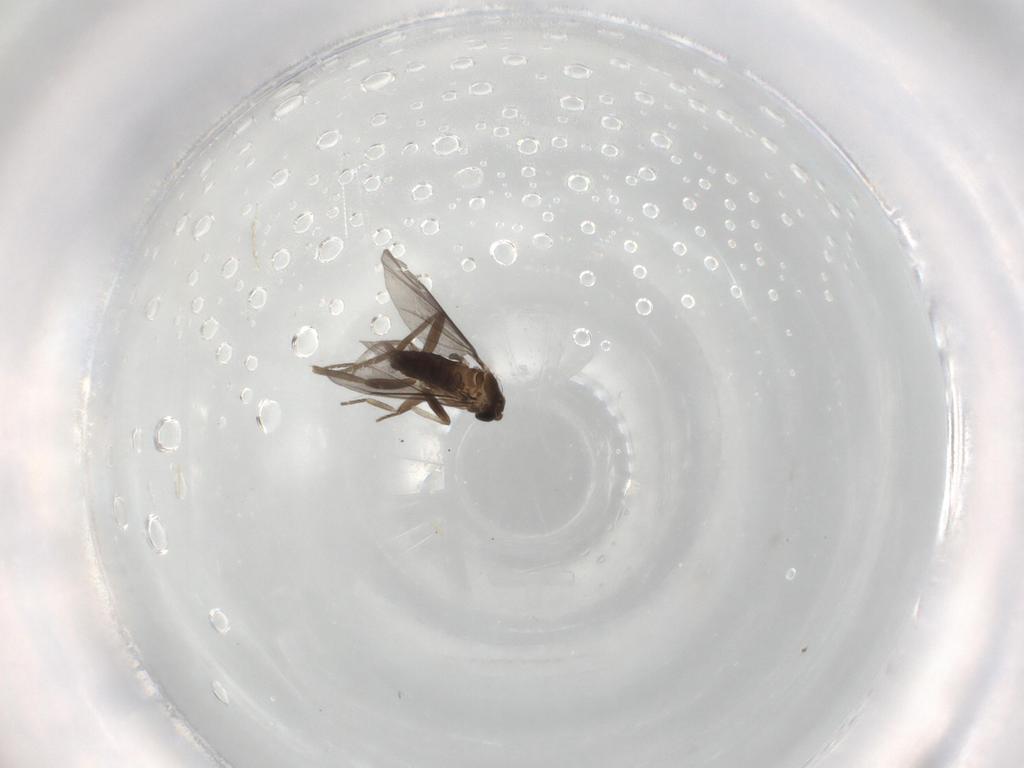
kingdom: Animalia
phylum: Arthropoda
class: Insecta
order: Diptera
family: Phoridae
